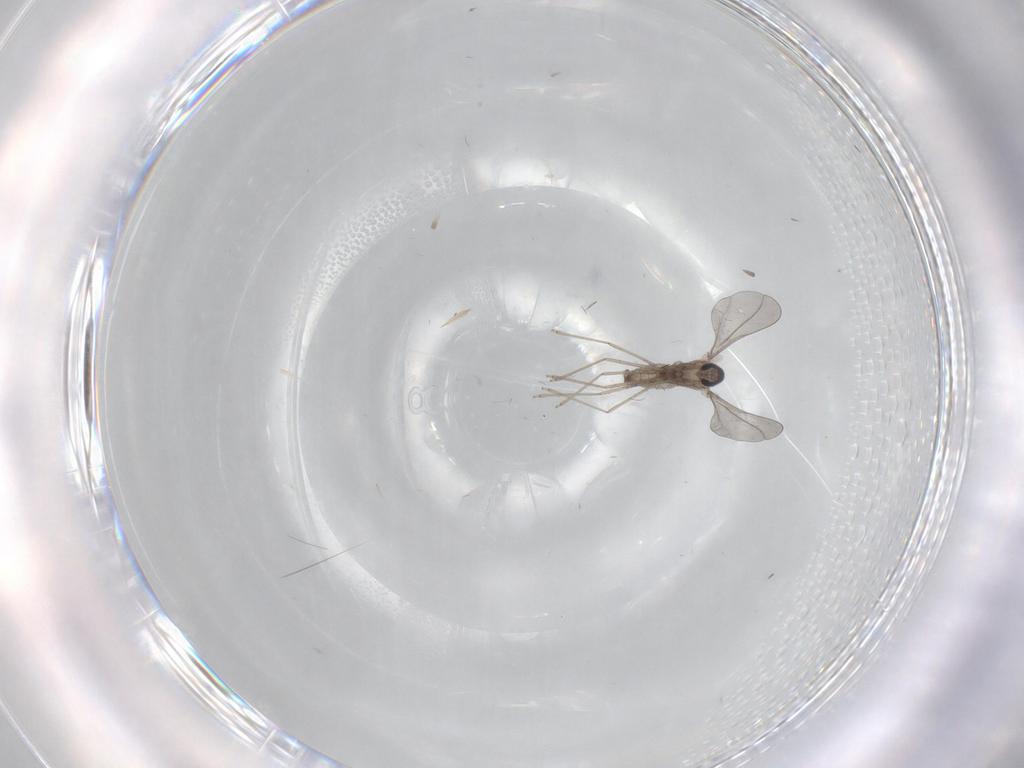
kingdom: Animalia
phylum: Arthropoda
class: Insecta
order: Diptera
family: Cecidomyiidae
